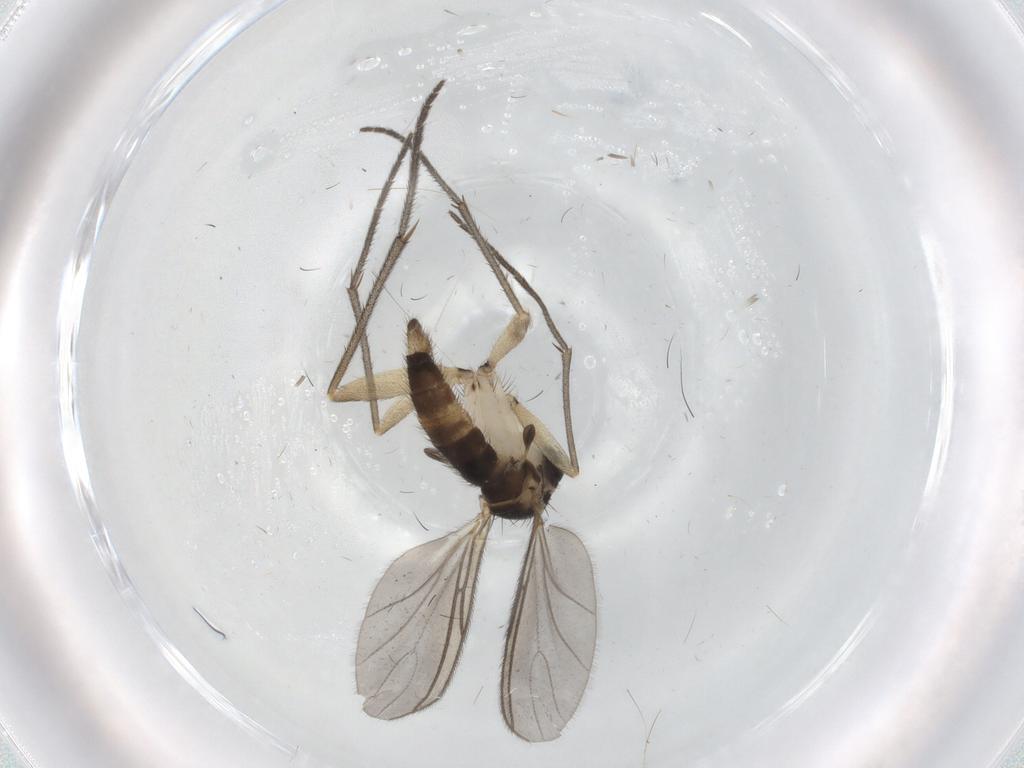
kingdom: Animalia
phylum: Arthropoda
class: Insecta
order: Diptera
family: Sciaridae
